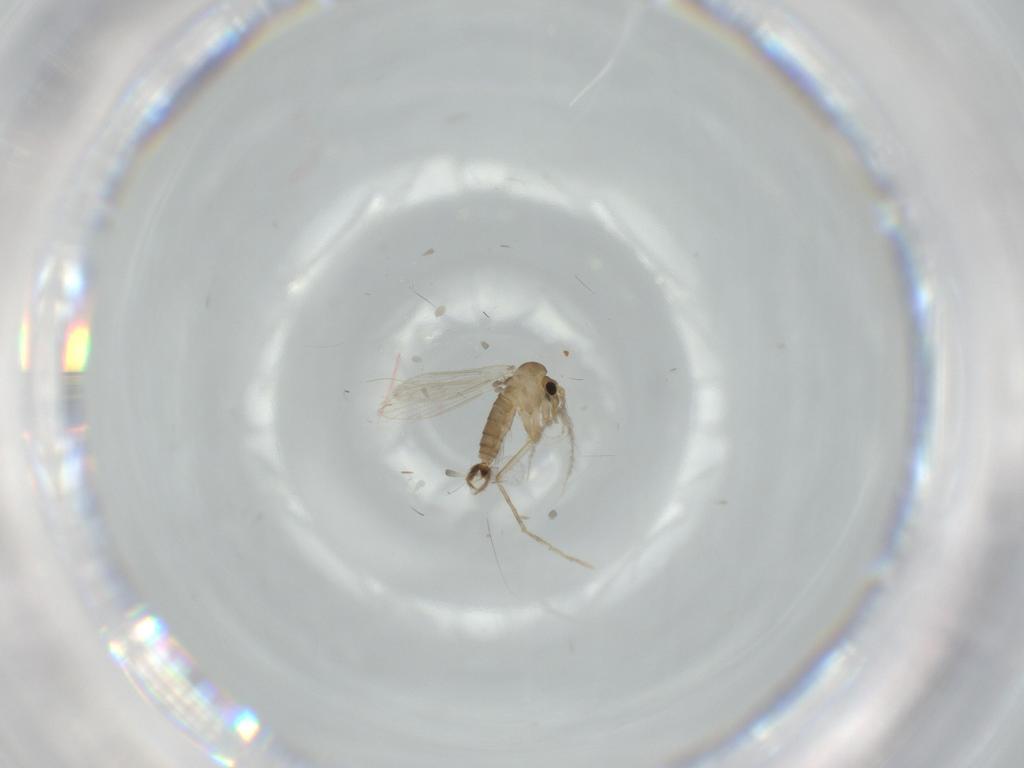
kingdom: Animalia
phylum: Arthropoda
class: Insecta
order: Diptera
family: Psychodidae
